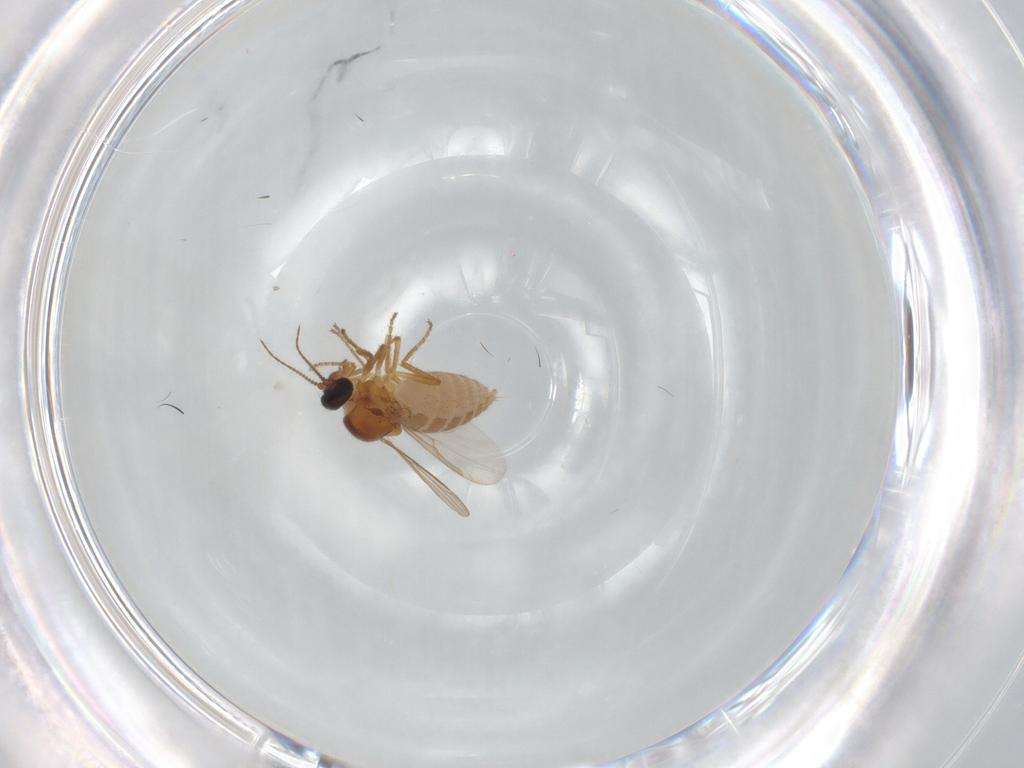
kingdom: Animalia
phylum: Arthropoda
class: Insecta
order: Diptera
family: Ceratopogonidae
